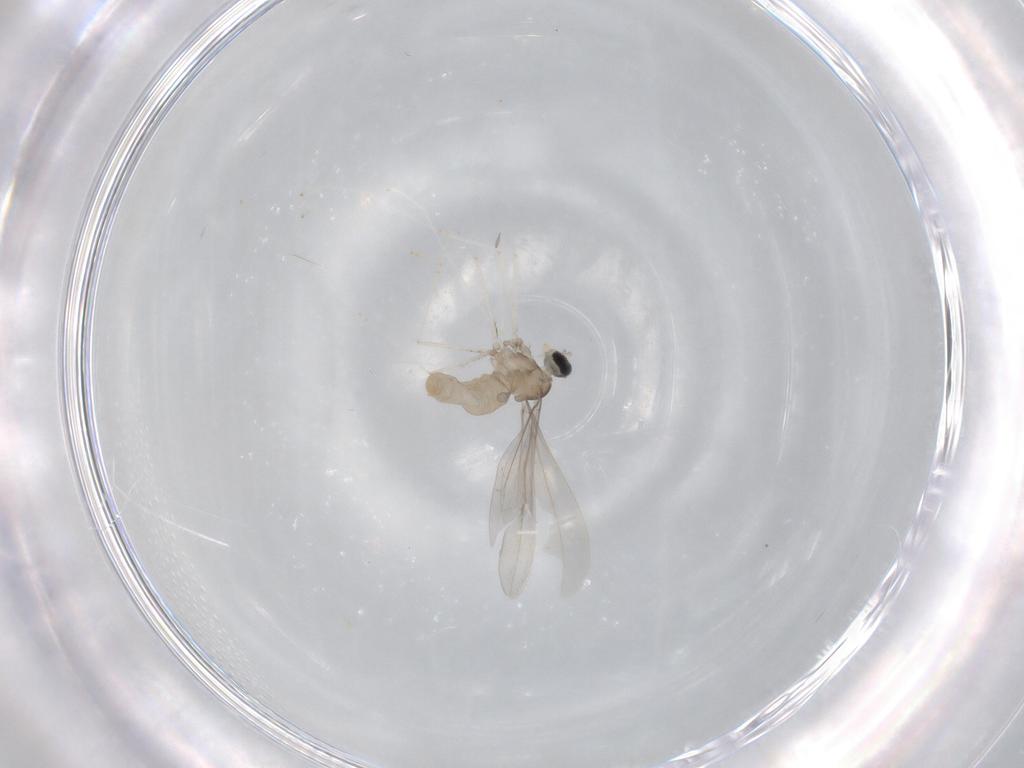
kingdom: Animalia
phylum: Arthropoda
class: Insecta
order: Diptera
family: Cecidomyiidae
